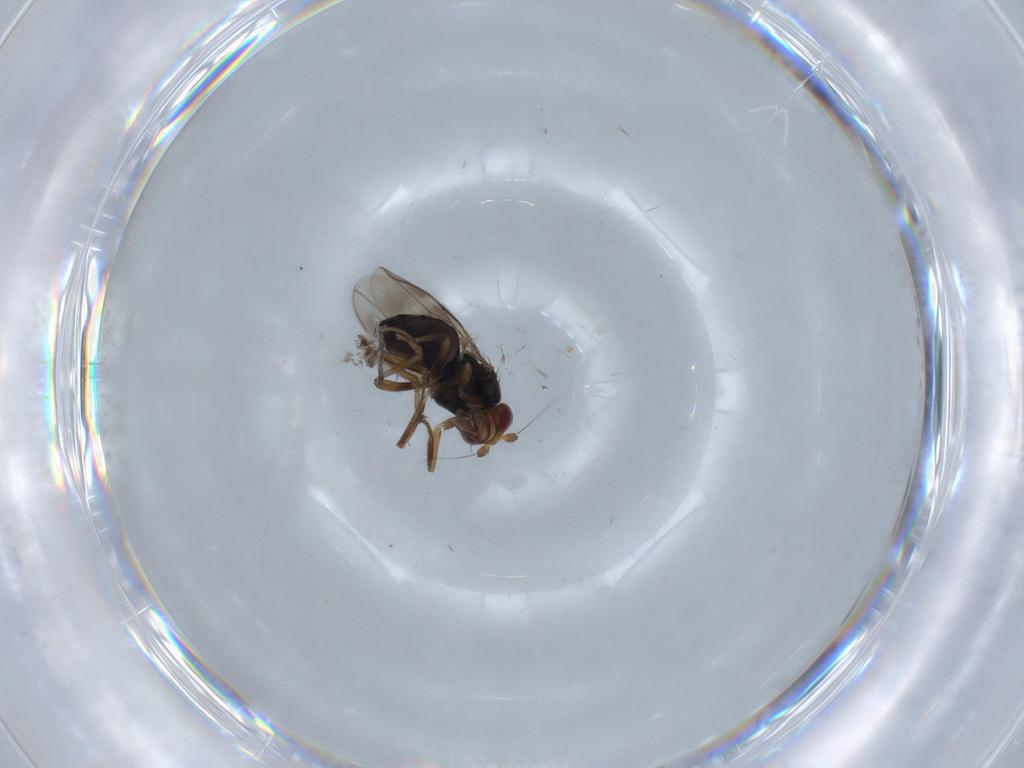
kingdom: Animalia
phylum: Arthropoda
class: Insecta
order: Diptera
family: Sphaeroceridae
